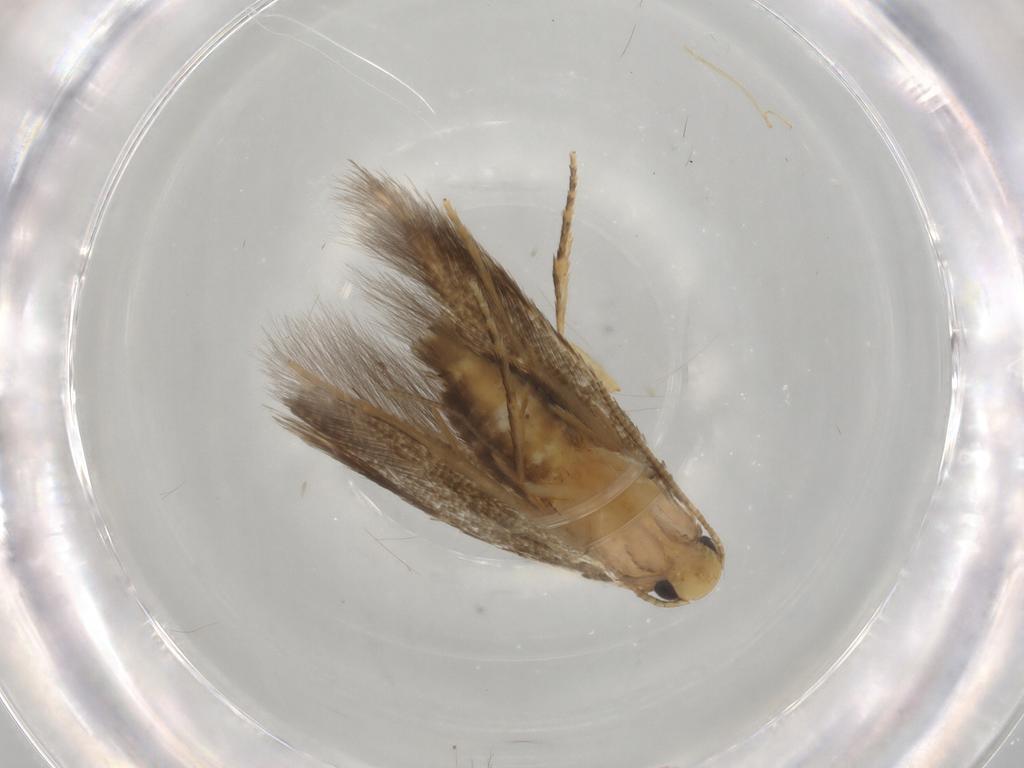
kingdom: Animalia
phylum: Arthropoda
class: Insecta
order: Lepidoptera
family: Tineidae
